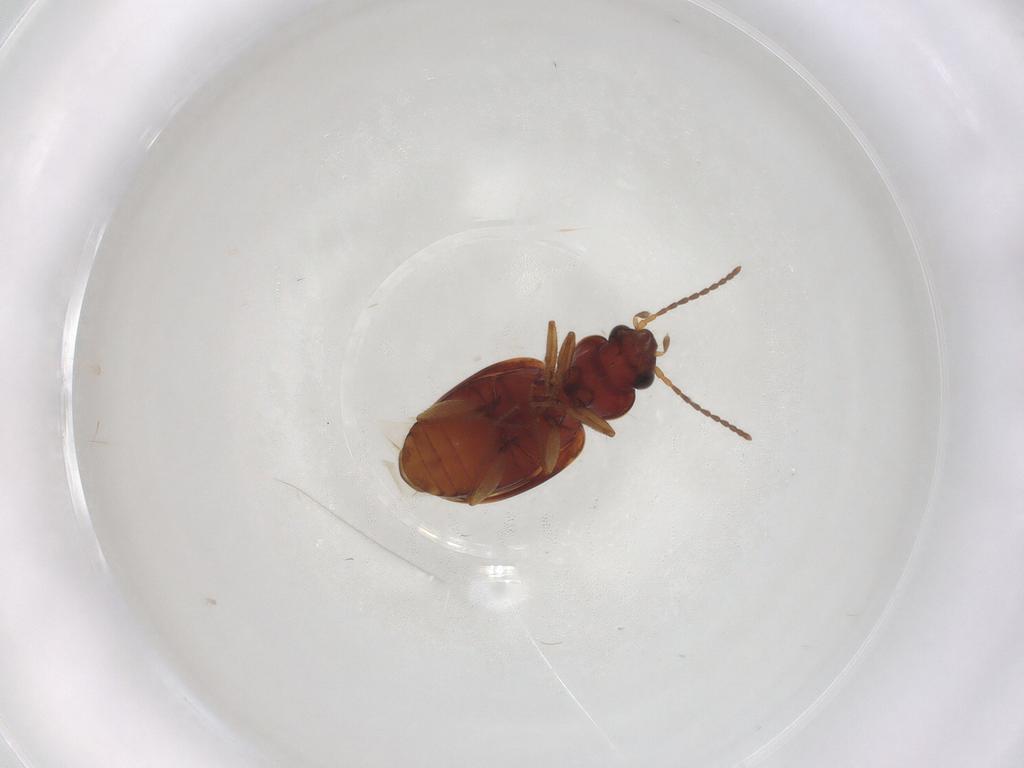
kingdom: Animalia
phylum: Arthropoda
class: Insecta
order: Coleoptera
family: Carabidae
